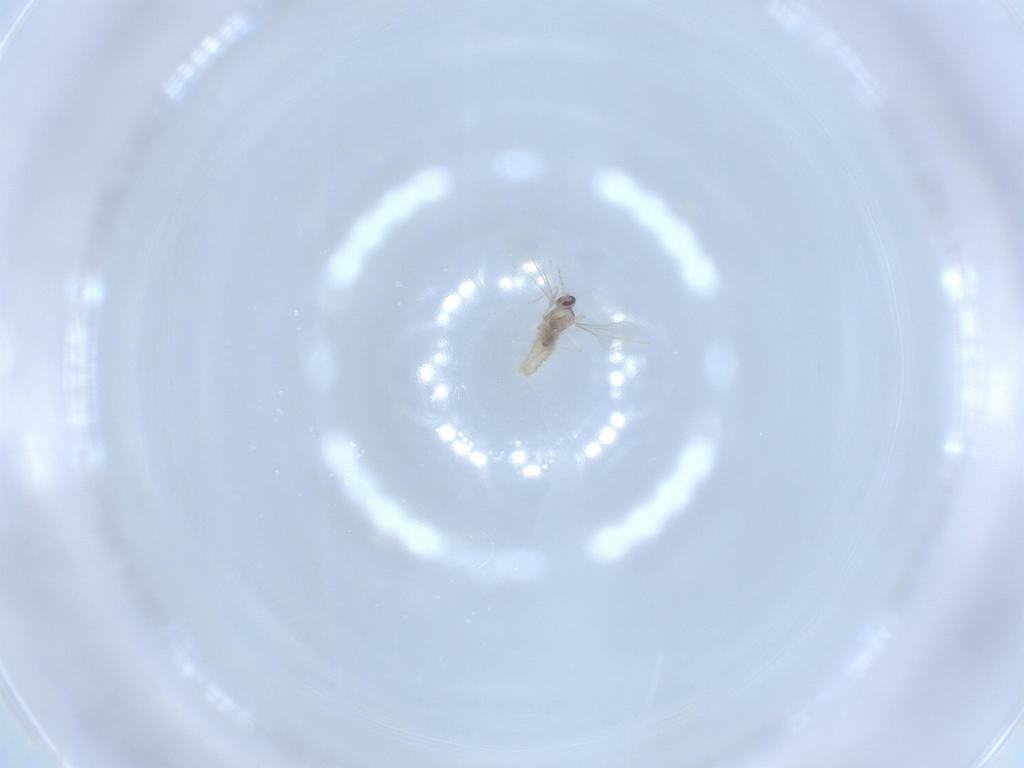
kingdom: Animalia
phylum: Arthropoda
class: Insecta
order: Diptera
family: Cecidomyiidae
